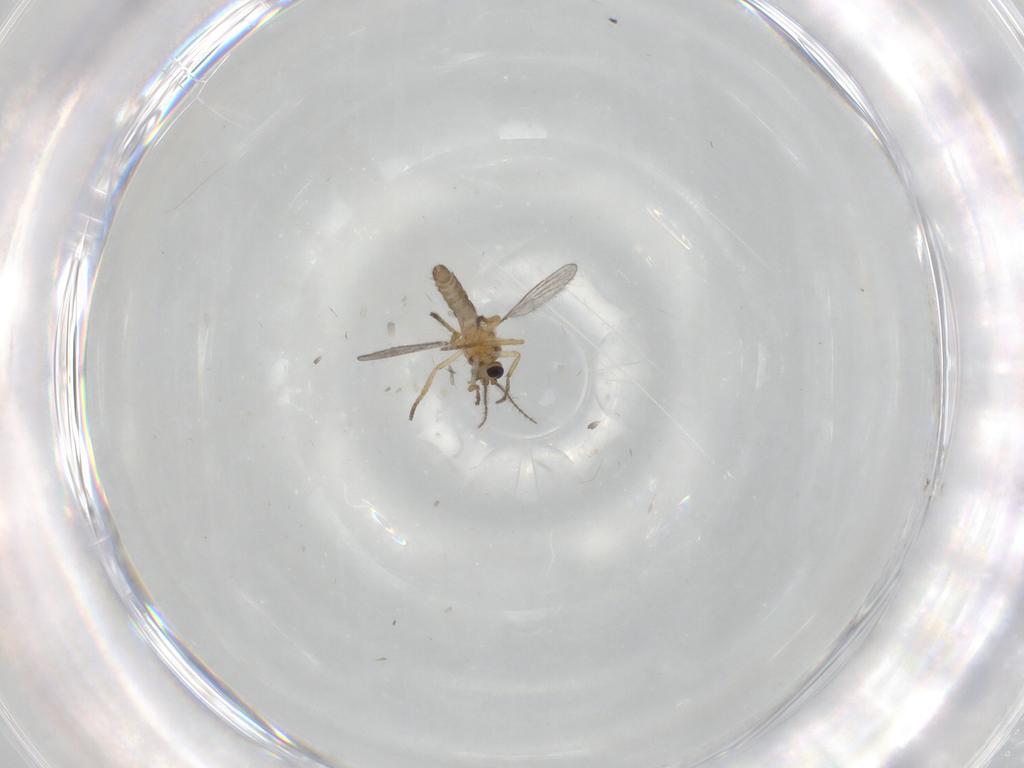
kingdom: Animalia
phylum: Arthropoda
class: Insecta
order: Diptera
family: Ceratopogonidae
